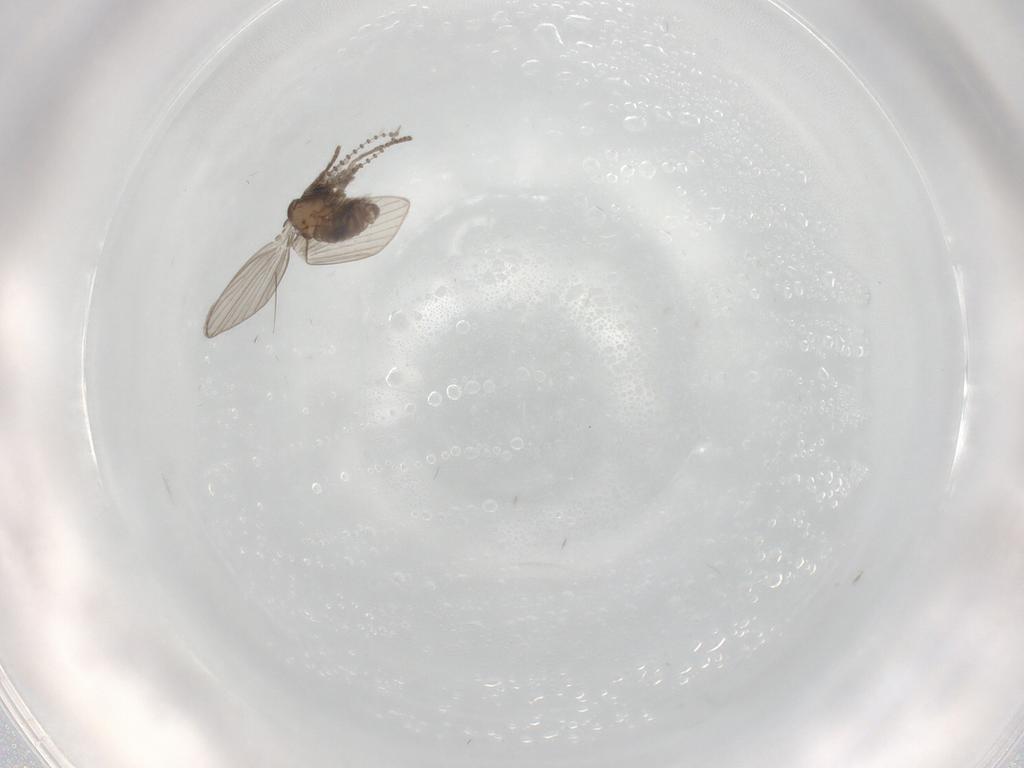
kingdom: Animalia
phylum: Arthropoda
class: Insecta
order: Diptera
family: Psychodidae
